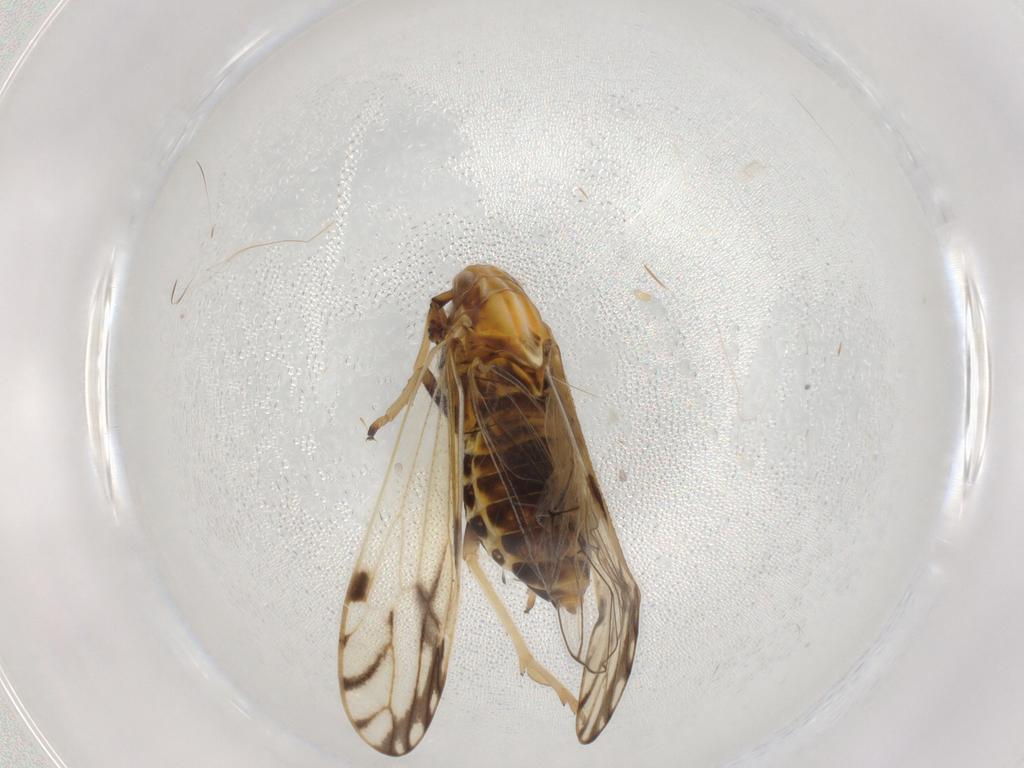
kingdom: Animalia
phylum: Arthropoda
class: Insecta
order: Hemiptera
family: Delphacidae
